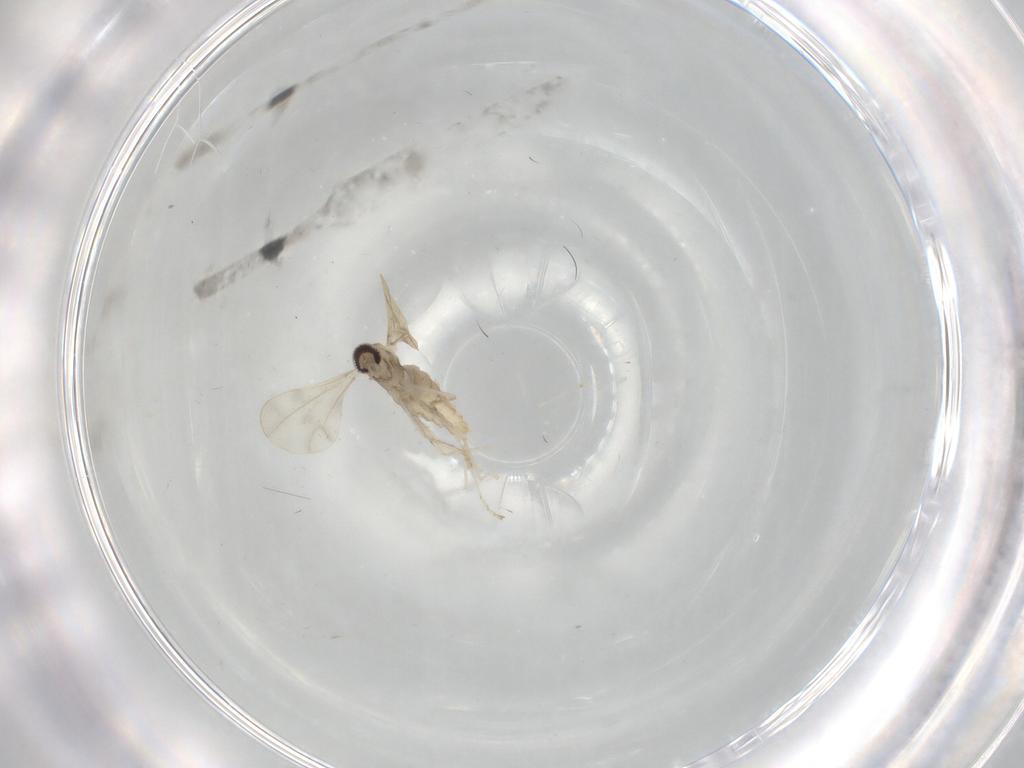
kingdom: Animalia
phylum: Arthropoda
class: Insecta
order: Diptera
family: Cecidomyiidae
